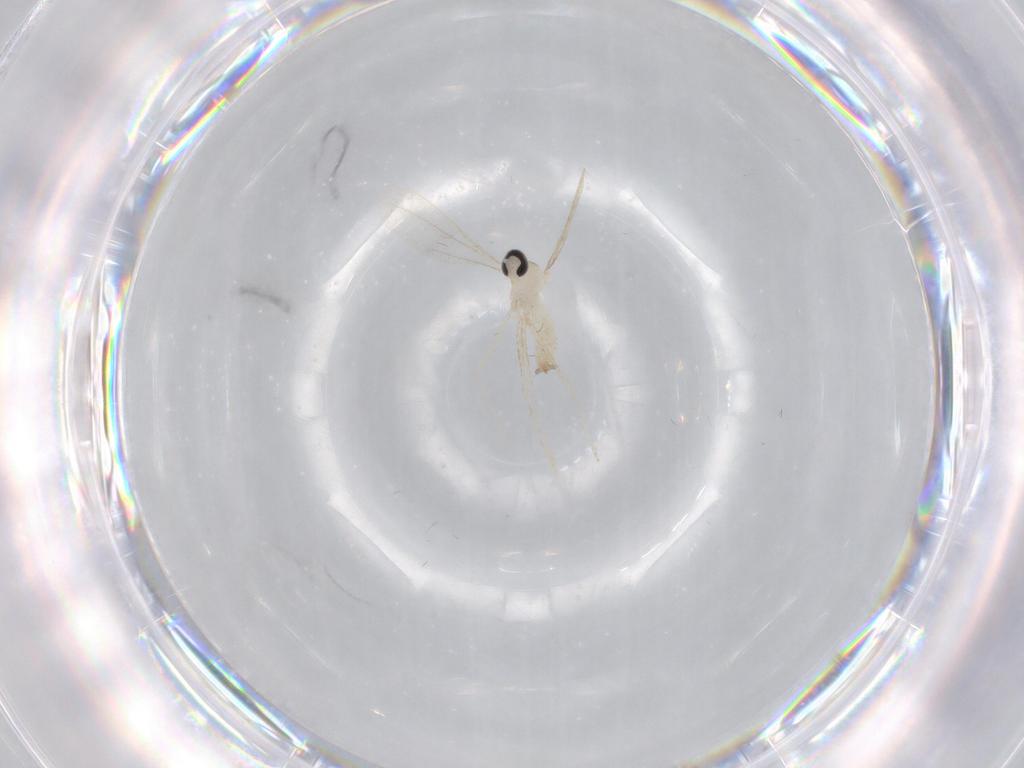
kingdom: Animalia
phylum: Arthropoda
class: Insecta
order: Diptera
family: Cecidomyiidae
